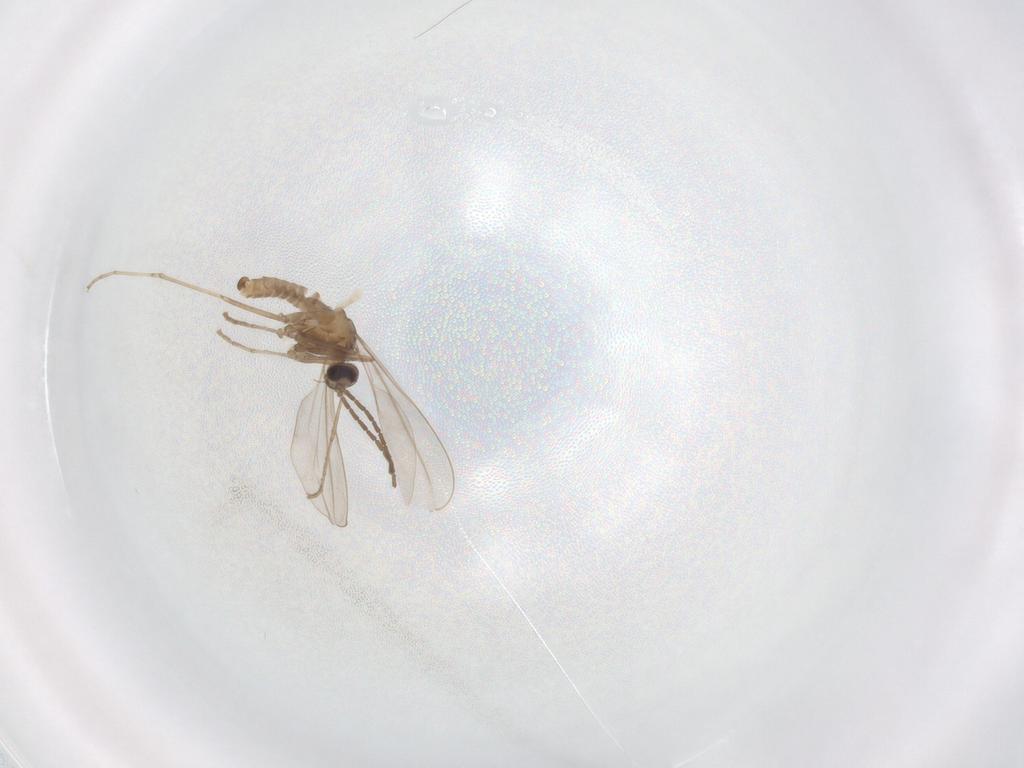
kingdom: Animalia
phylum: Arthropoda
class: Insecta
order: Diptera
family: Cecidomyiidae
